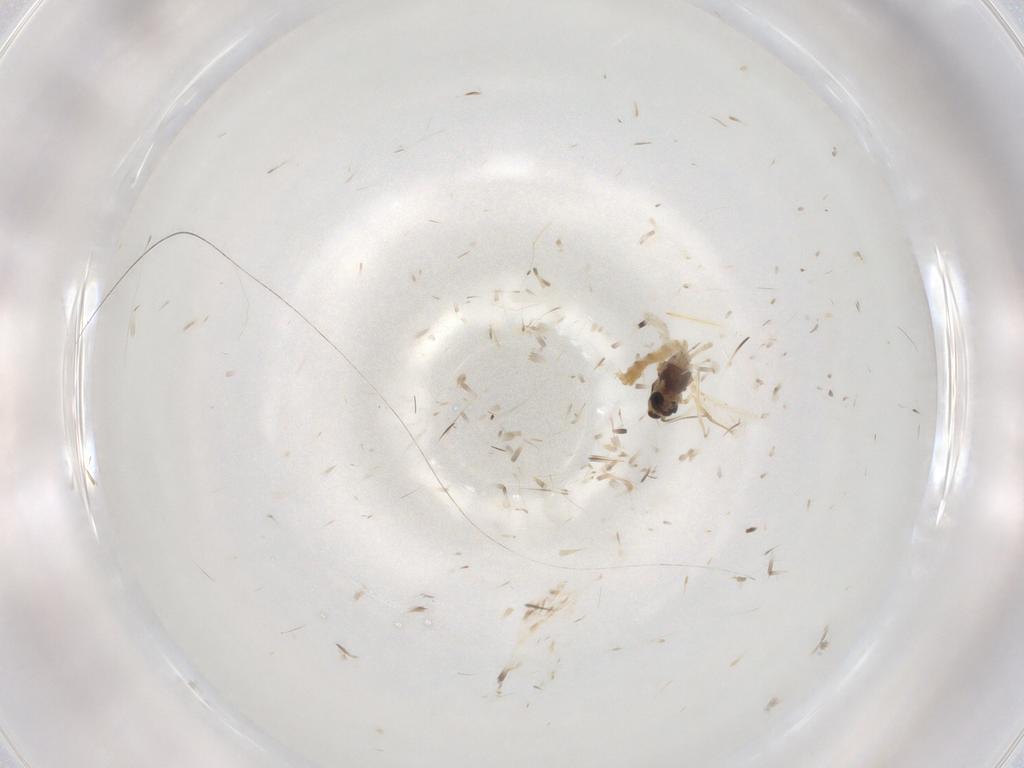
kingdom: Animalia
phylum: Arthropoda
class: Insecta
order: Diptera
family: Chironomidae
